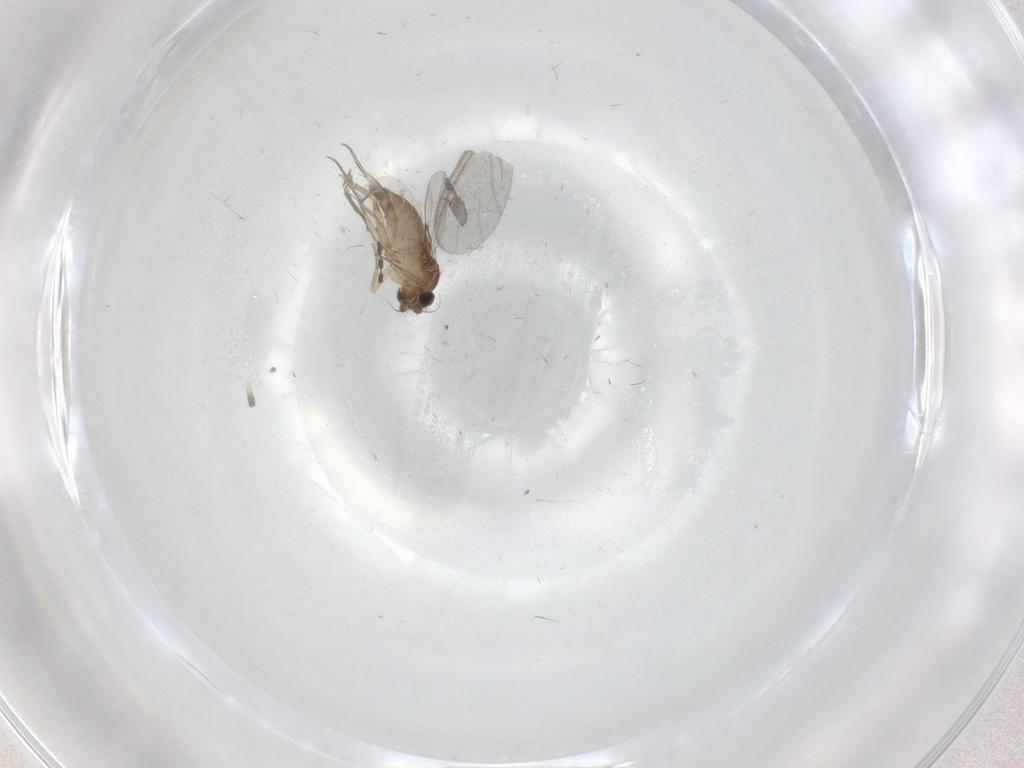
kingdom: Animalia
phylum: Arthropoda
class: Insecta
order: Diptera
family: Sciaridae
